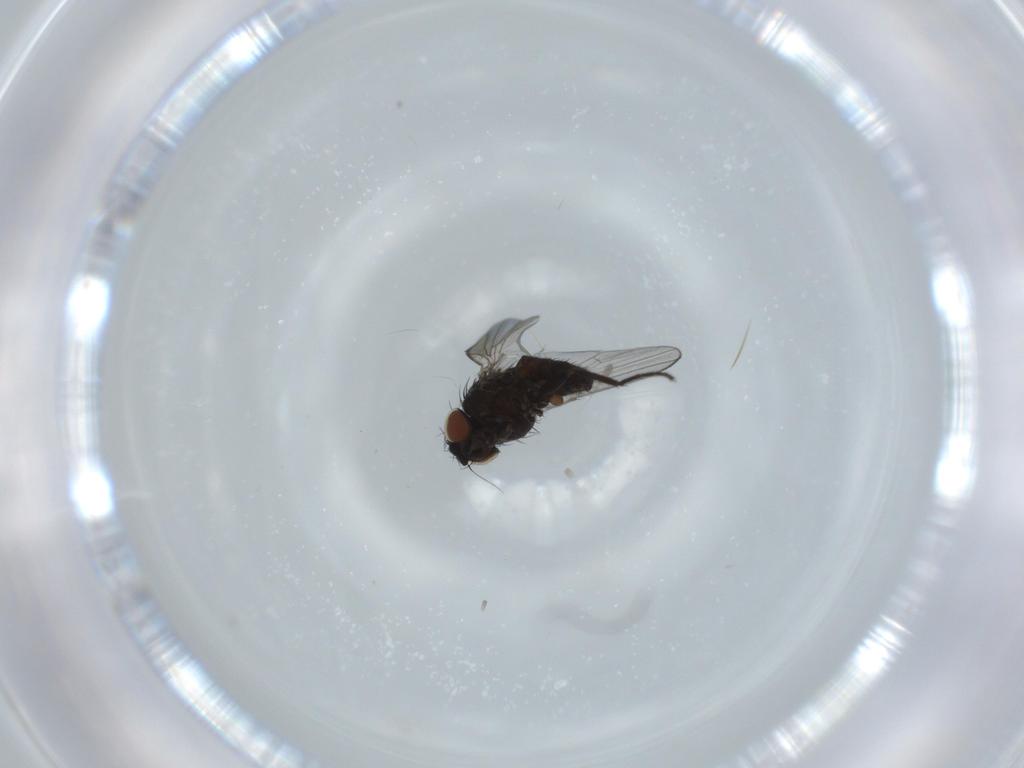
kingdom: Animalia
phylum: Arthropoda
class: Insecta
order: Diptera
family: Milichiidae
